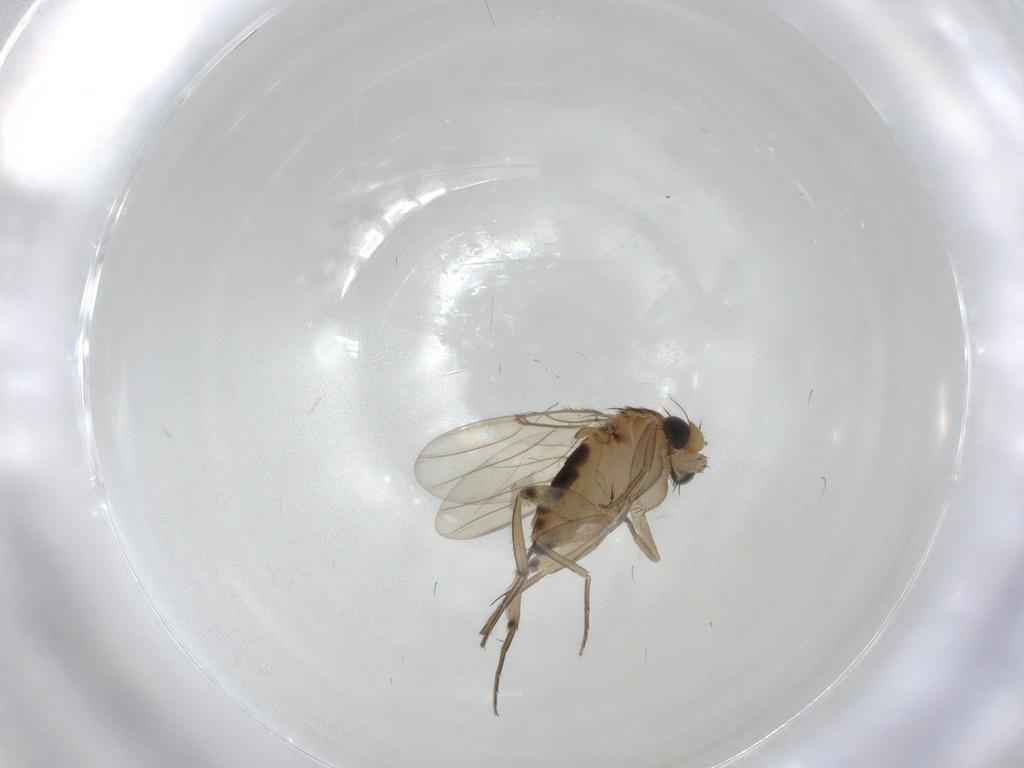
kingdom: Animalia
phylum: Arthropoda
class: Insecta
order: Diptera
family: Cecidomyiidae
